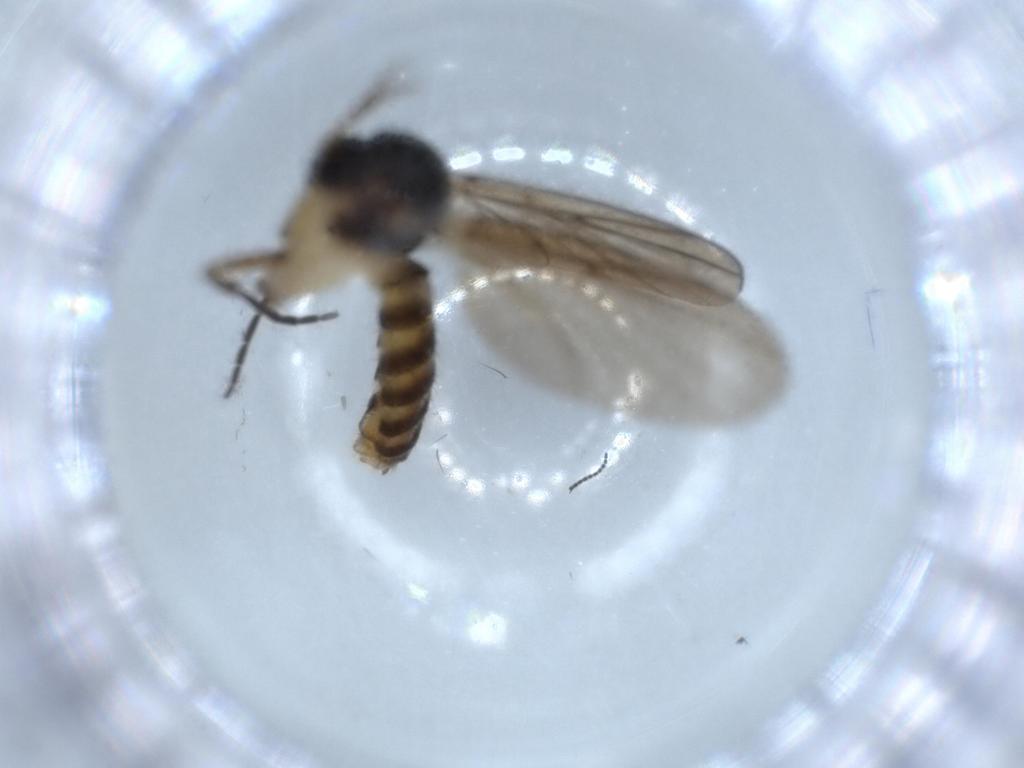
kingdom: Animalia
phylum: Arthropoda
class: Insecta
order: Diptera
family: Mycetophilidae
